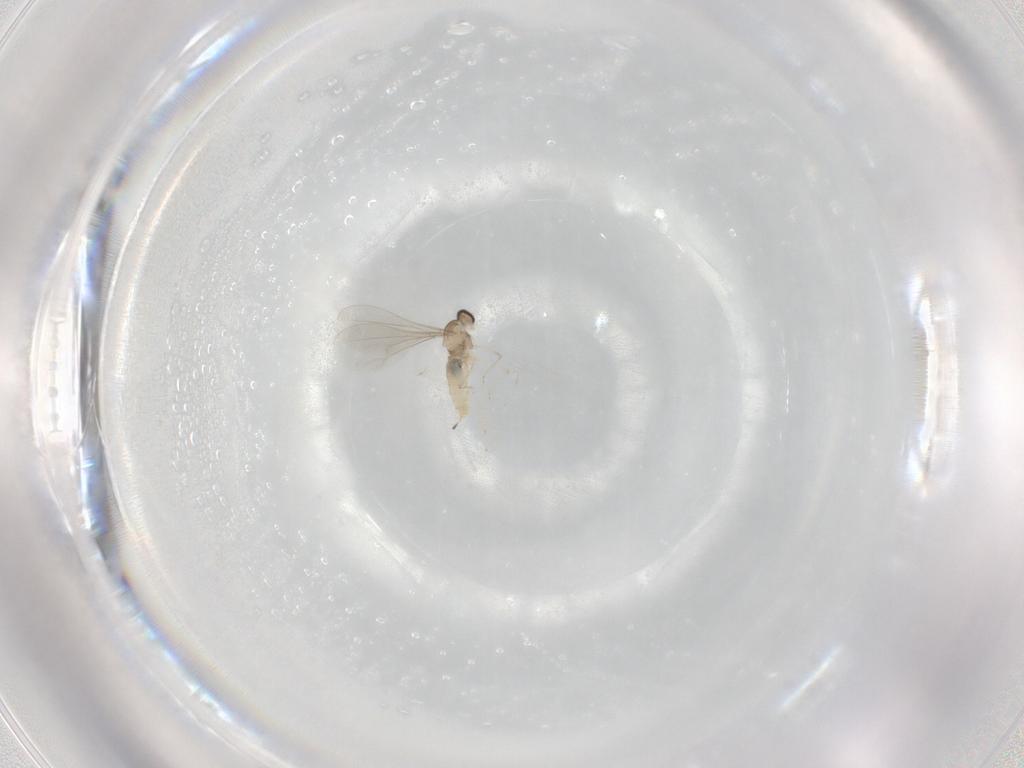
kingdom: Animalia
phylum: Arthropoda
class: Insecta
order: Diptera
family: Cecidomyiidae
